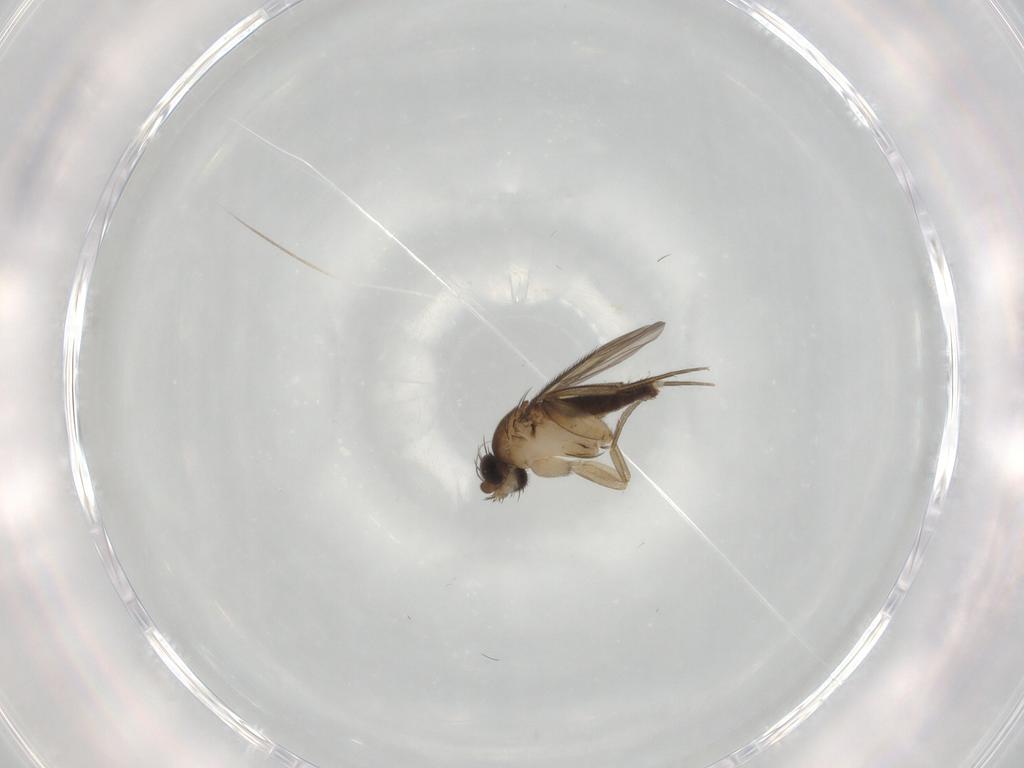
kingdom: Animalia
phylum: Arthropoda
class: Insecta
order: Diptera
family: Phoridae
